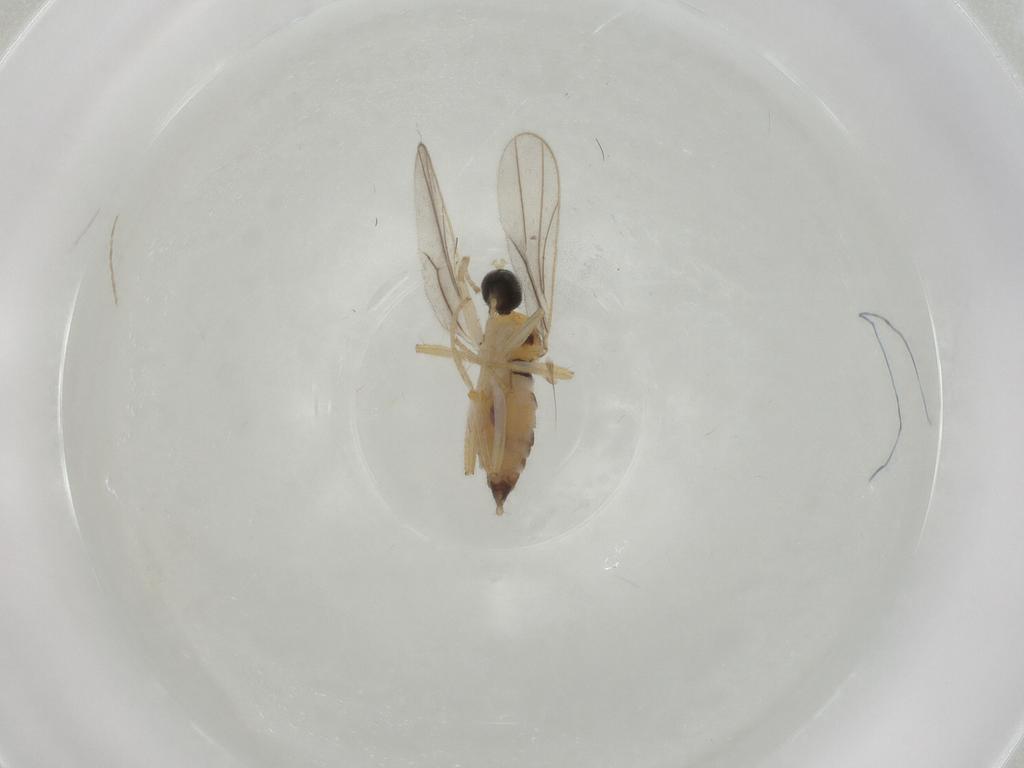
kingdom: Animalia
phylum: Arthropoda
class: Insecta
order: Diptera
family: Hybotidae
